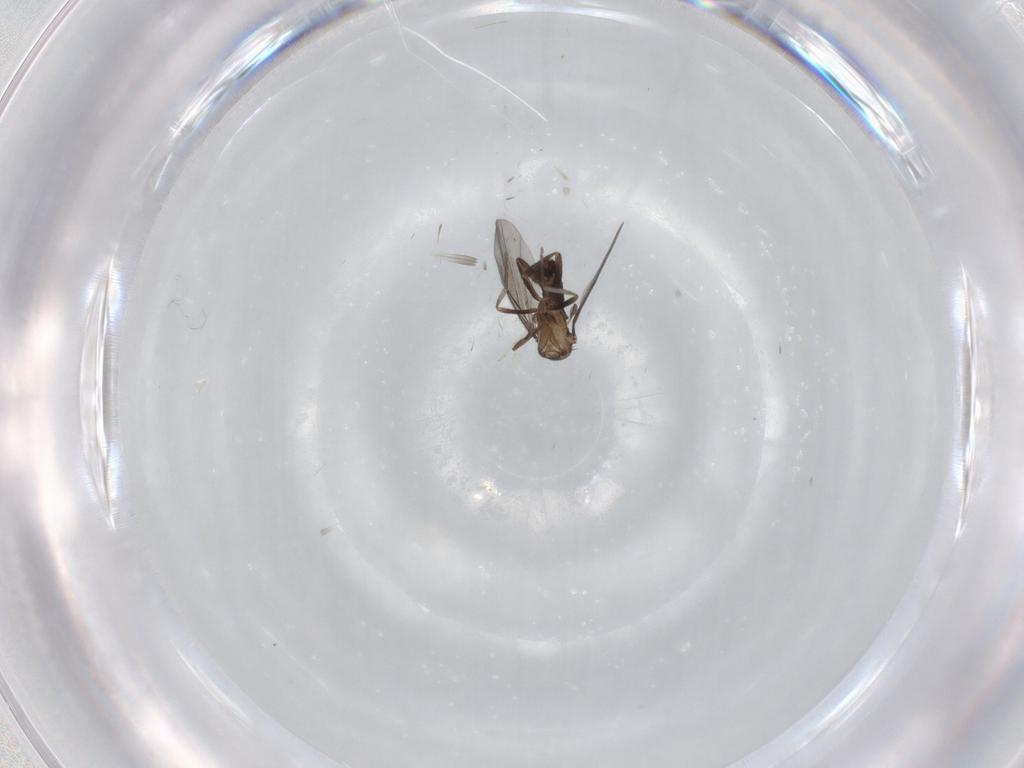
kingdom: Animalia
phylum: Arthropoda
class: Insecta
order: Diptera
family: Phoridae
